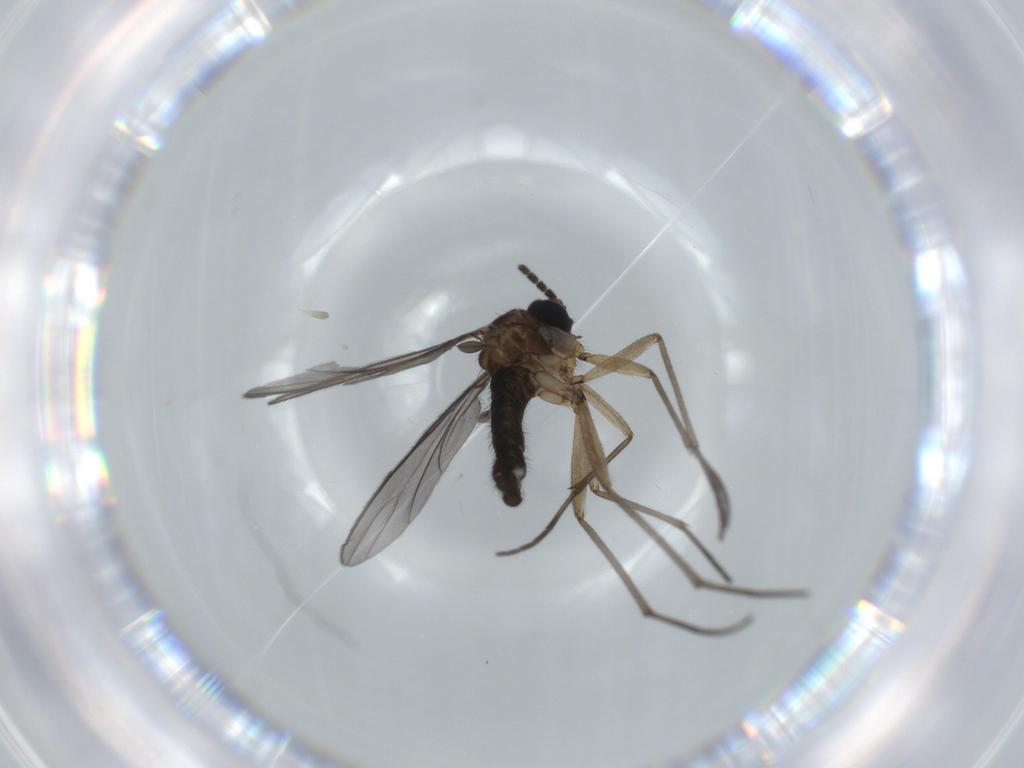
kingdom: Animalia
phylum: Arthropoda
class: Insecta
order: Diptera
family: Sciaridae
